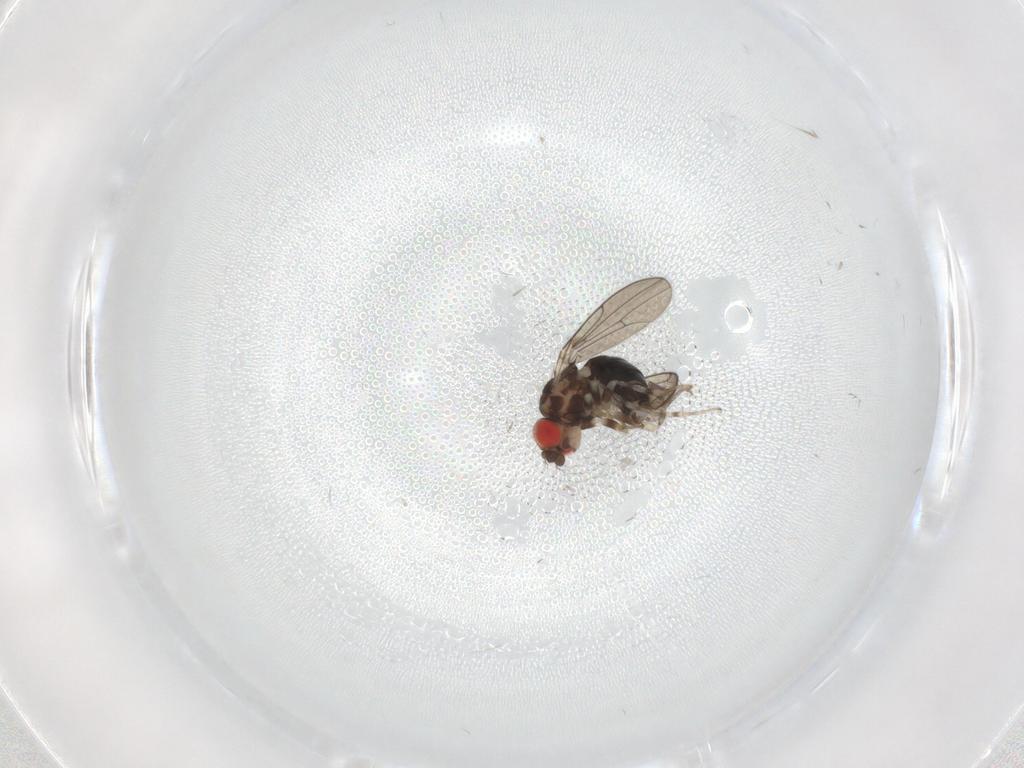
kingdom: Animalia
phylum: Arthropoda
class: Insecta
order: Diptera
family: Drosophilidae
